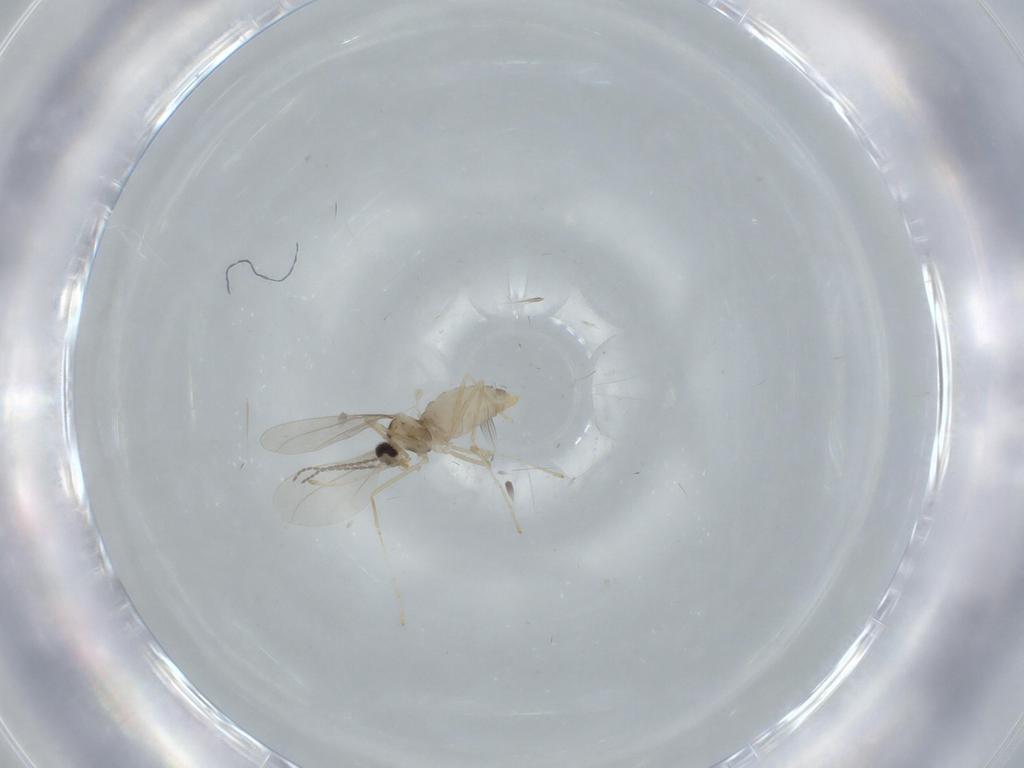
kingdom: Animalia
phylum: Arthropoda
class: Insecta
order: Diptera
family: Cecidomyiidae
